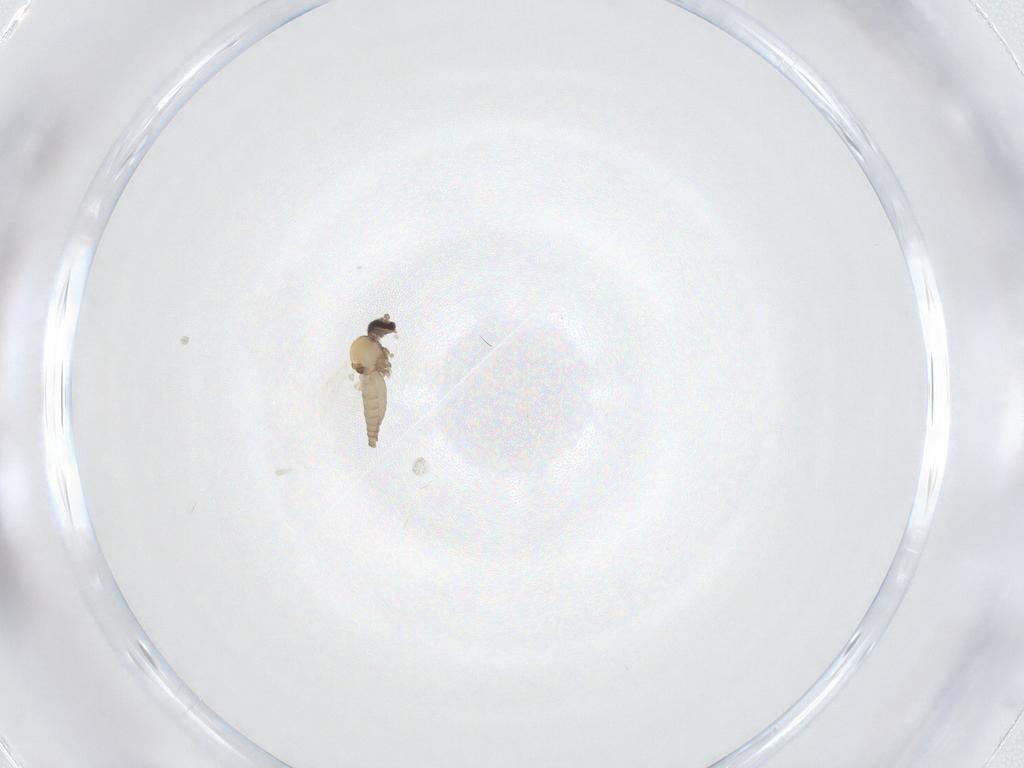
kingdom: Animalia
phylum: Arthropoda
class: Insecta
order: Diptera
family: Ceratopogonidae
